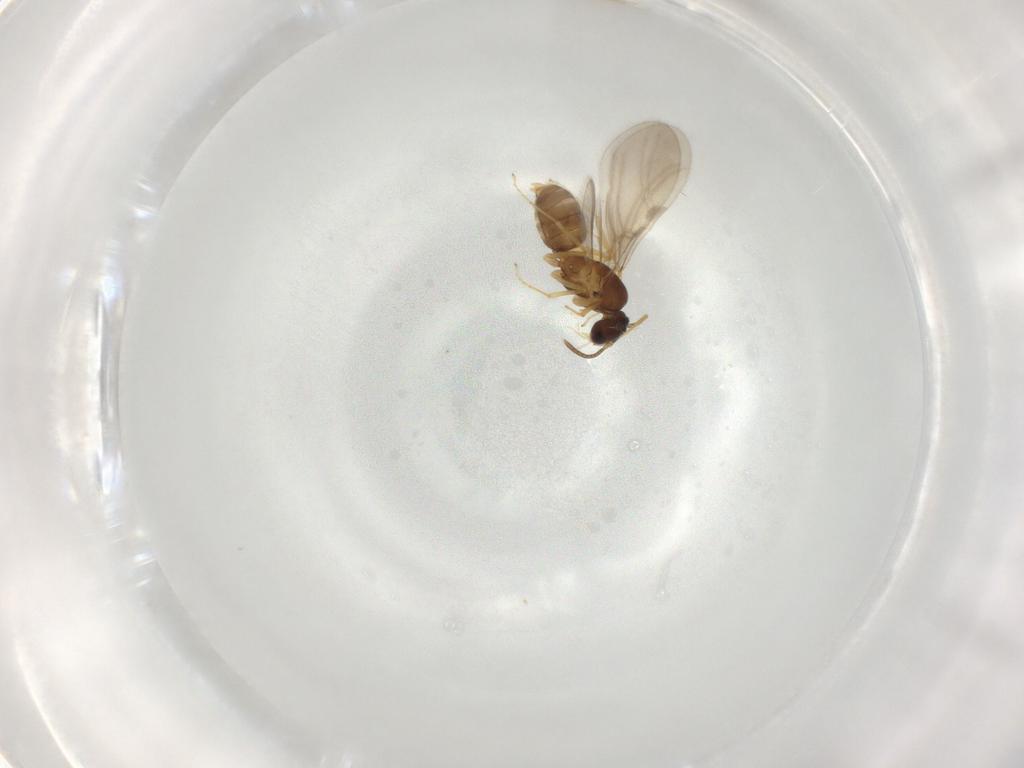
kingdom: Animalia
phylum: Arthropoda
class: Insecta
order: Hymenoptera
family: Formicidae
